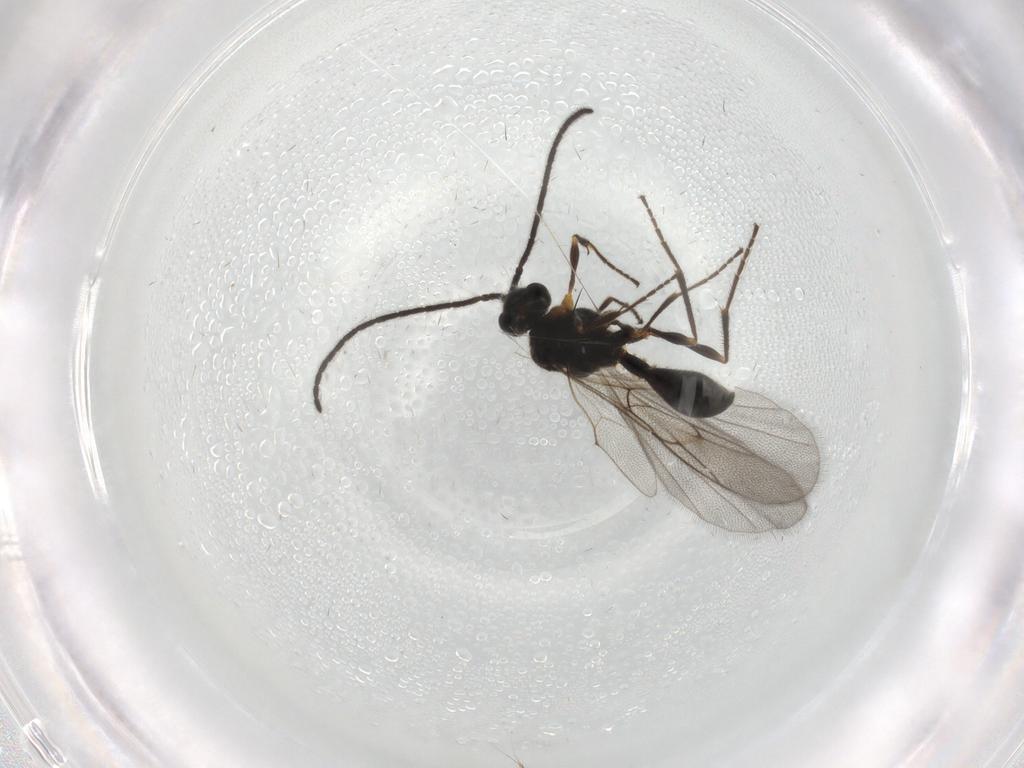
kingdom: Animalia
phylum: Arthropoda
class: Insecta
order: Hymenoptera
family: Diapriidae
